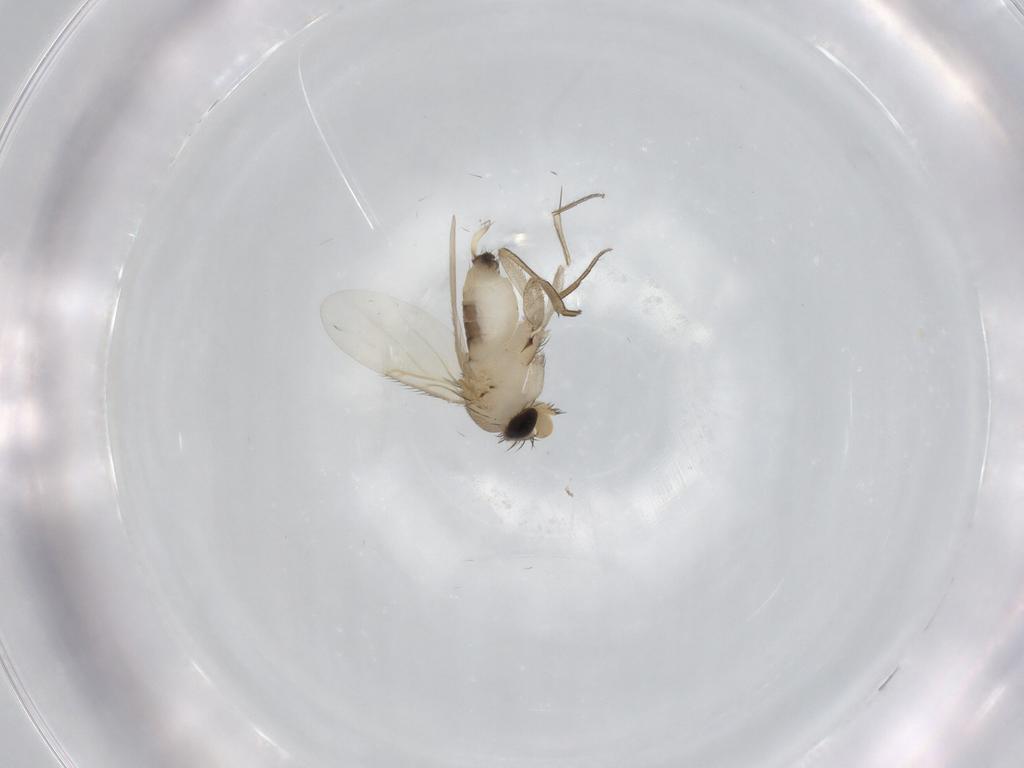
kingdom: Animalia
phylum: Arthropoda
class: Insecta
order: Diptera
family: Phoridae
